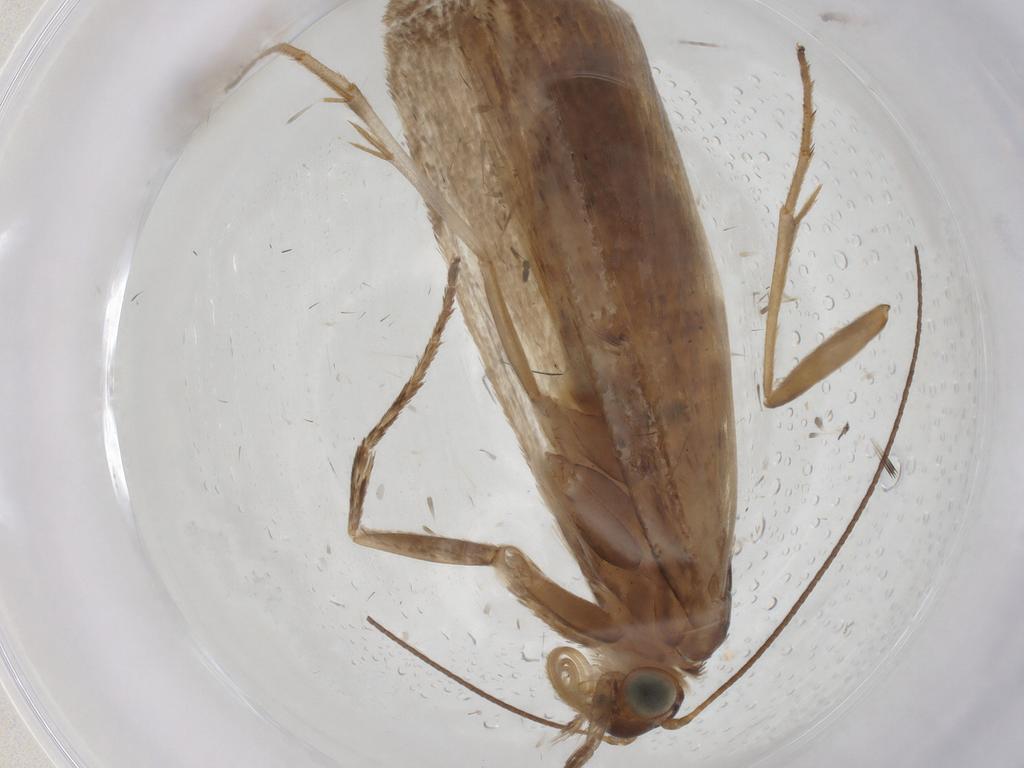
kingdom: Animalia
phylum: Arthropoda
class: Insecta
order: Lepidoptera
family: Crambidae
